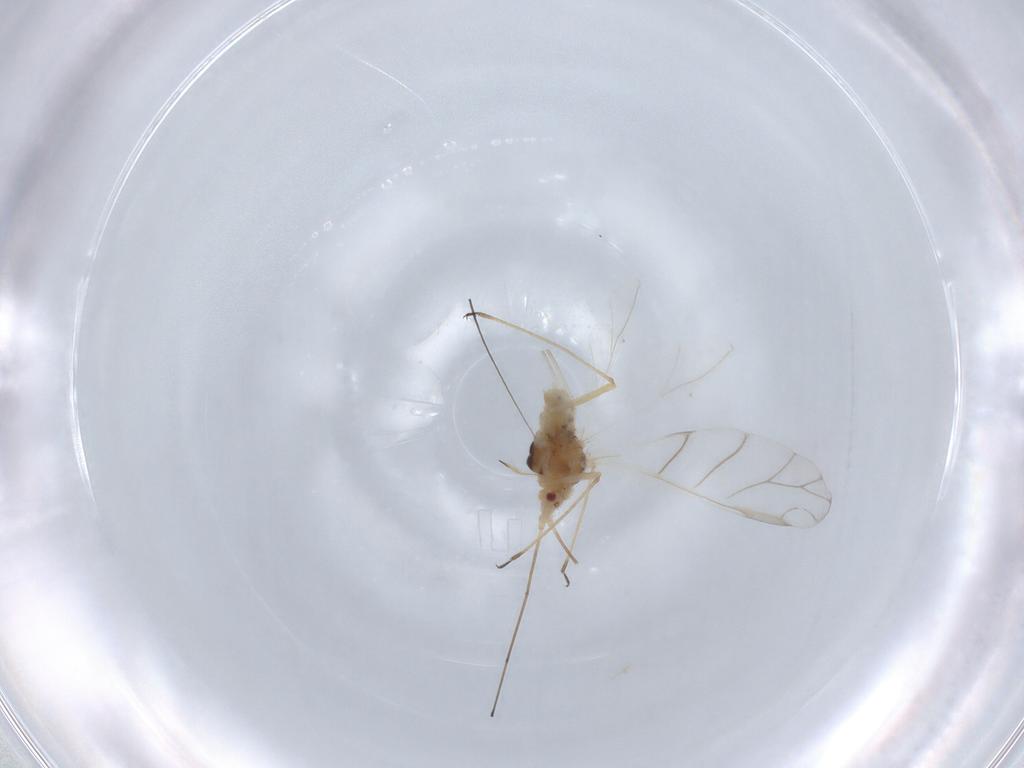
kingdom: Animalia
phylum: Arthropoda
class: Insecta
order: Hemiptera
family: Aphididae
